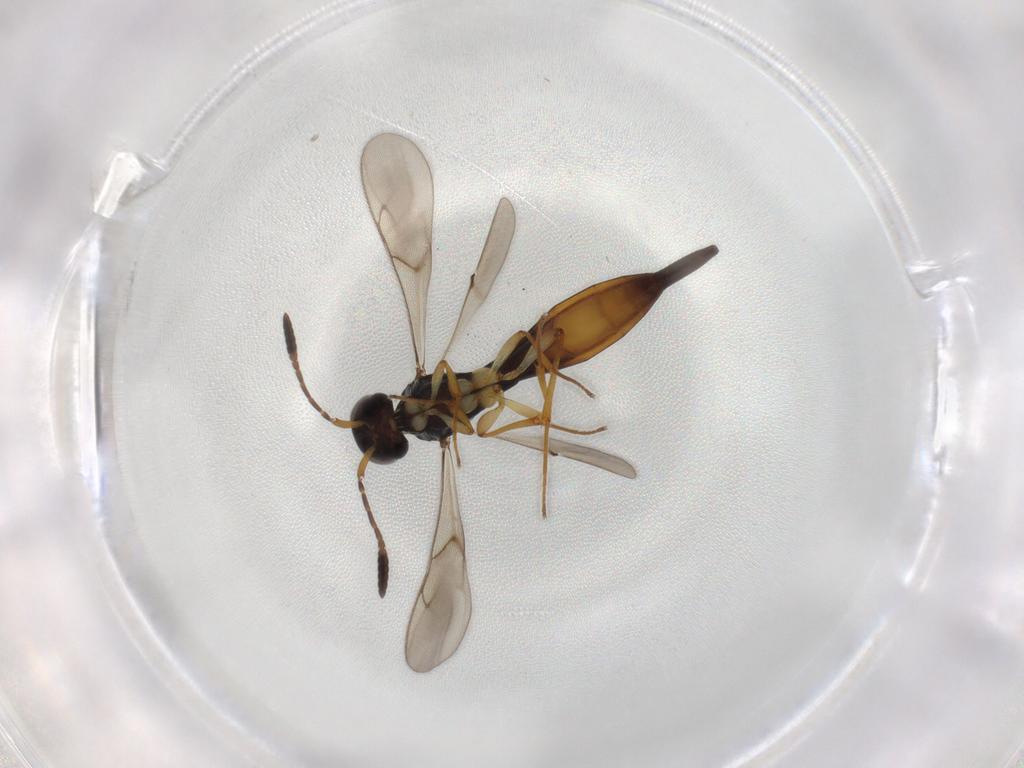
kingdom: Animalia
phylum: Arthropoda
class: Insecta
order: Hymenoptera
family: Scelionidae
